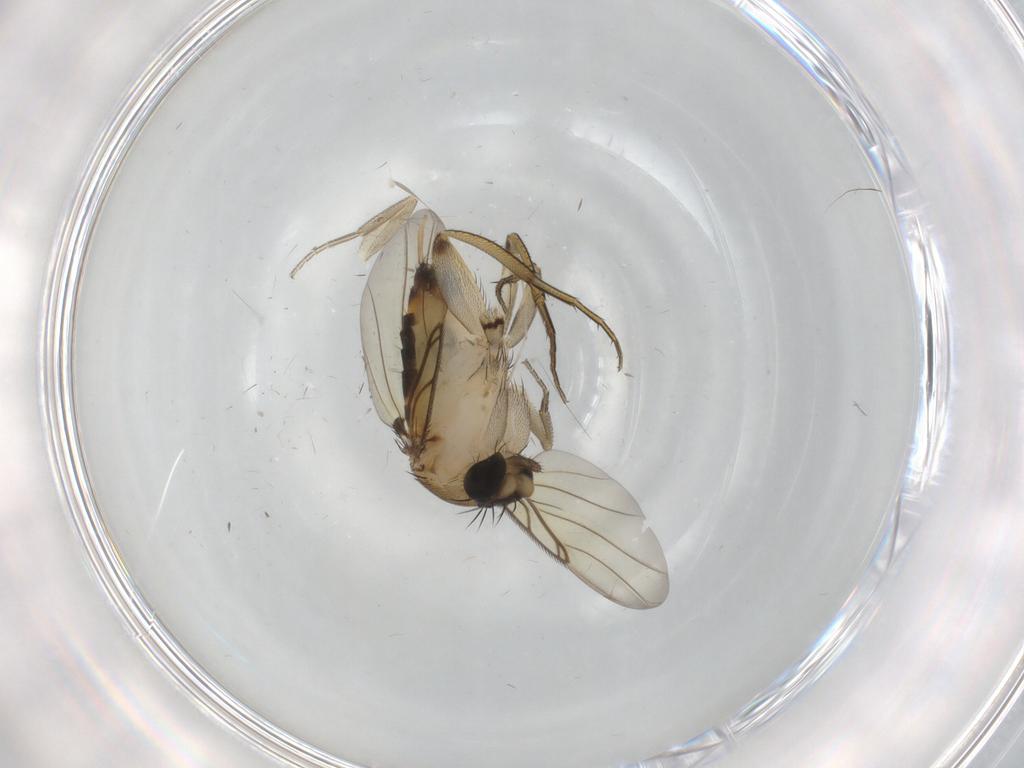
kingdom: Animalia
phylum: Arthropoda
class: Insecta
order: Diptera
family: Phoridae
